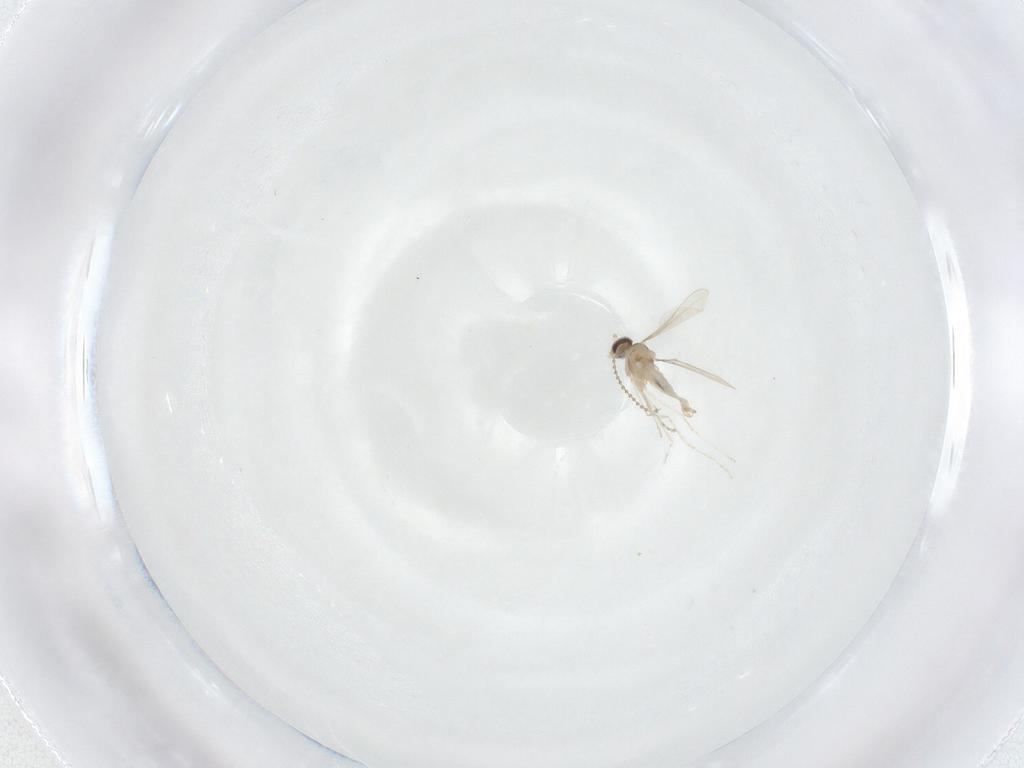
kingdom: Animalia
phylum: Arthropoda
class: Insecta
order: Diptera
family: Cecidomyiidae
